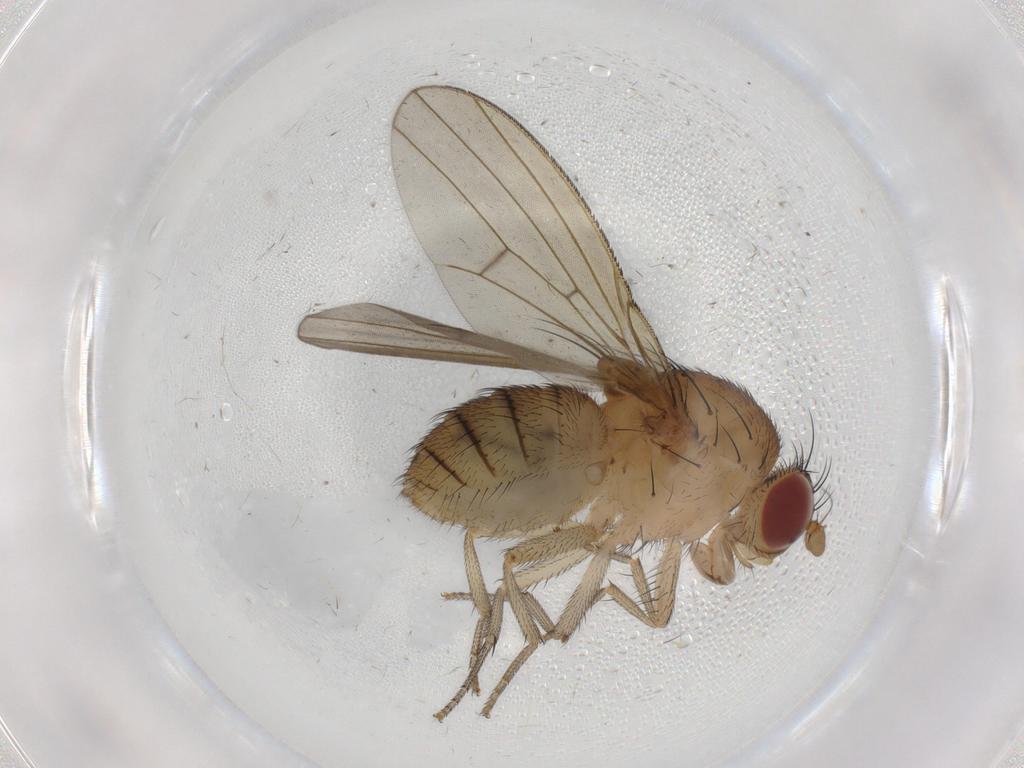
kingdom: Animalia
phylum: Arthropoda
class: Insecta
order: Diptera
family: Phoridae
